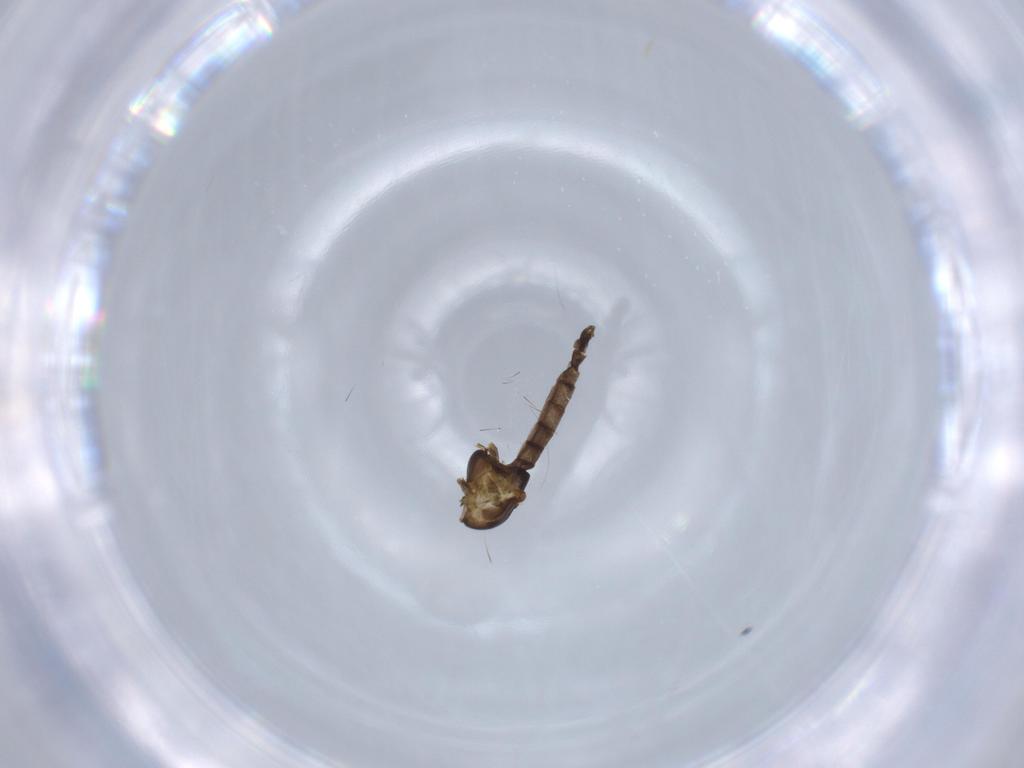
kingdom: Animalia
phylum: Arthropoda
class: Insecta
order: Diptera
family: Chironomidae
